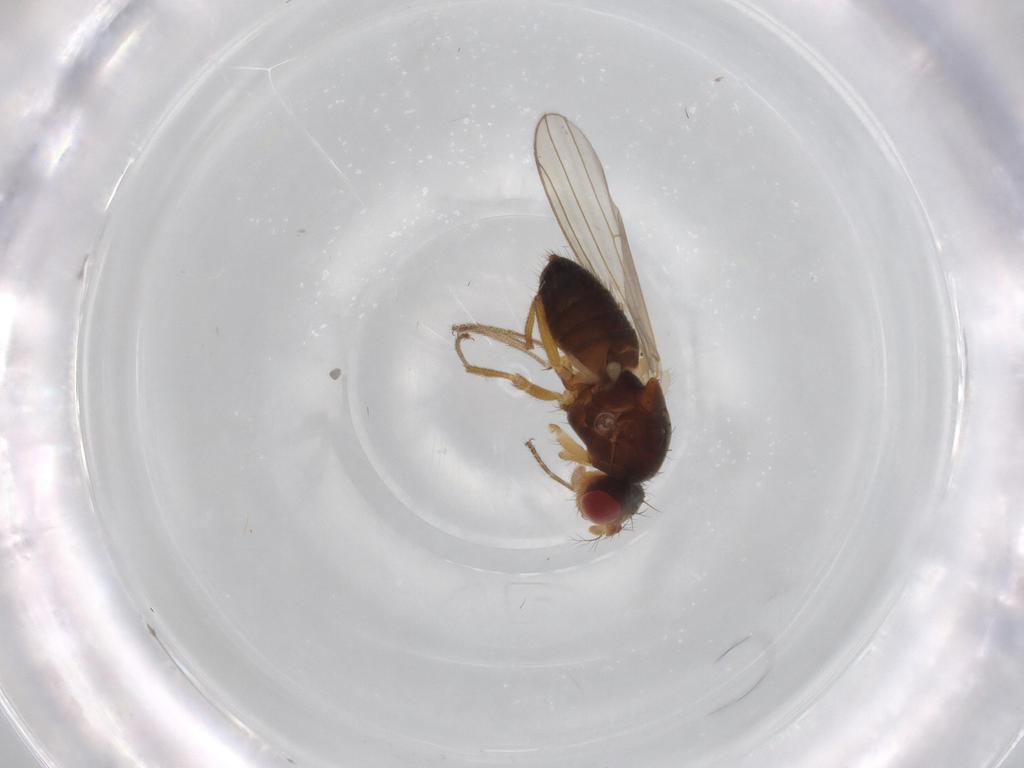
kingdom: Animalia
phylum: Arthropoda
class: Insecta
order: Diptera
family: Drosophilidae
